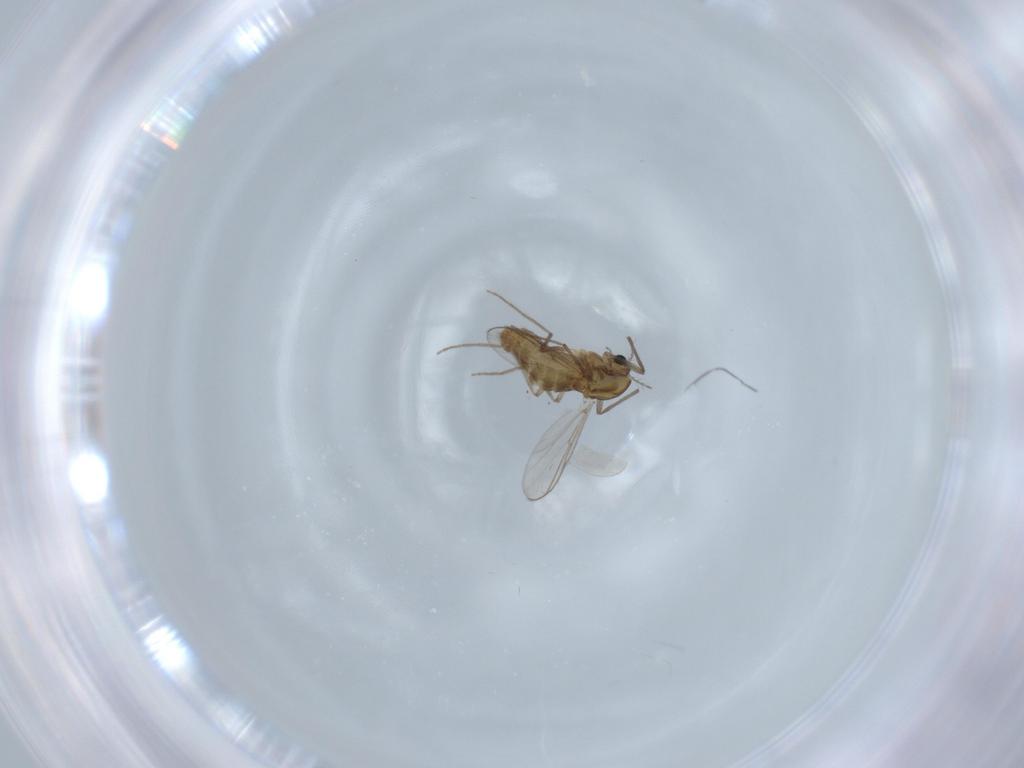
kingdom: Animalia
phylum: Arthropoda
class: Insecta
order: Diptera
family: Chironomidae
